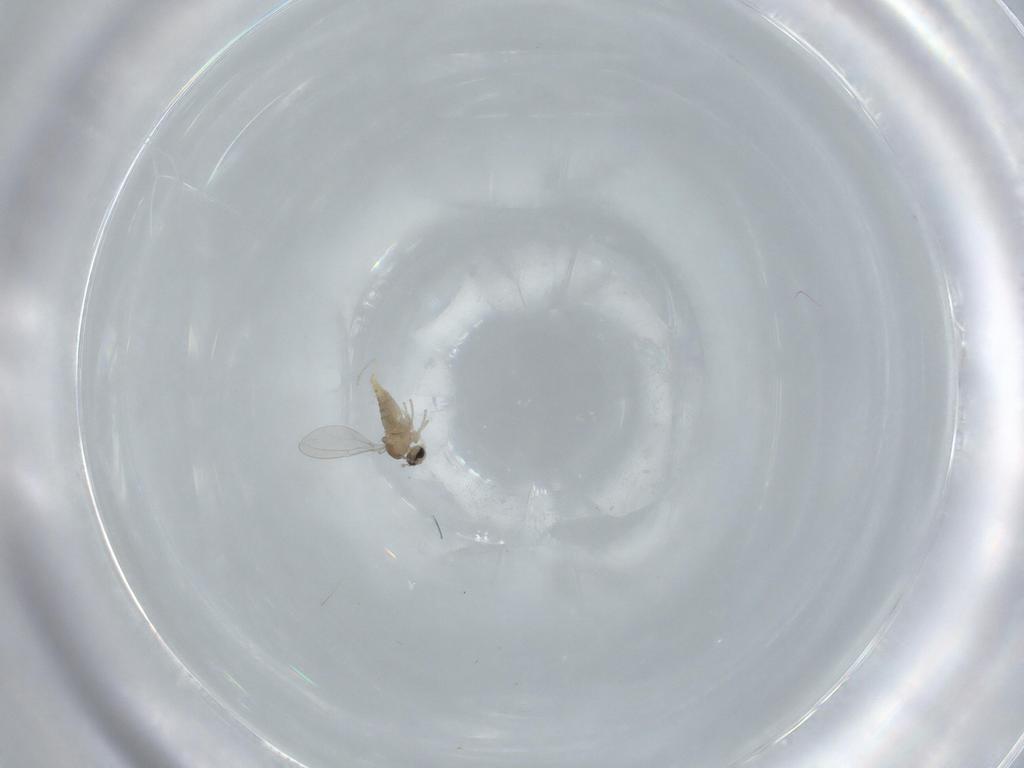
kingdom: Animalia
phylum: Arthropoda
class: Insecta
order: Diptera
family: Cecidomyiidae
